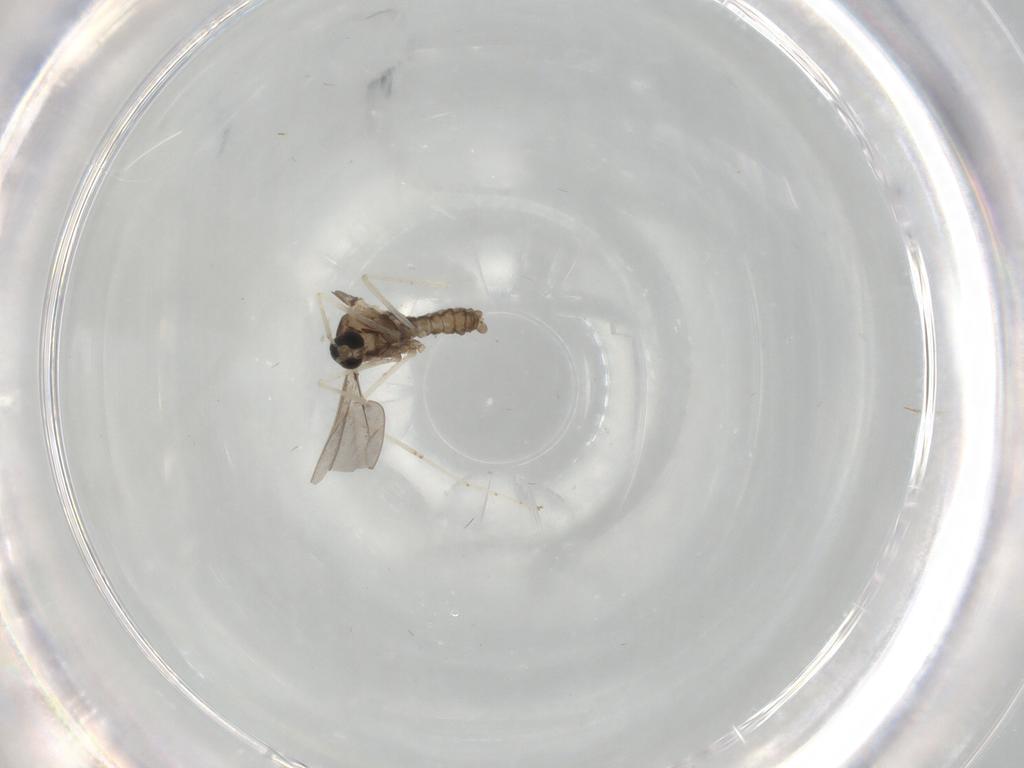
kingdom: Animalia
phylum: Arthropoda
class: Insecta
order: Diptera
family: Cecidomyiidae
